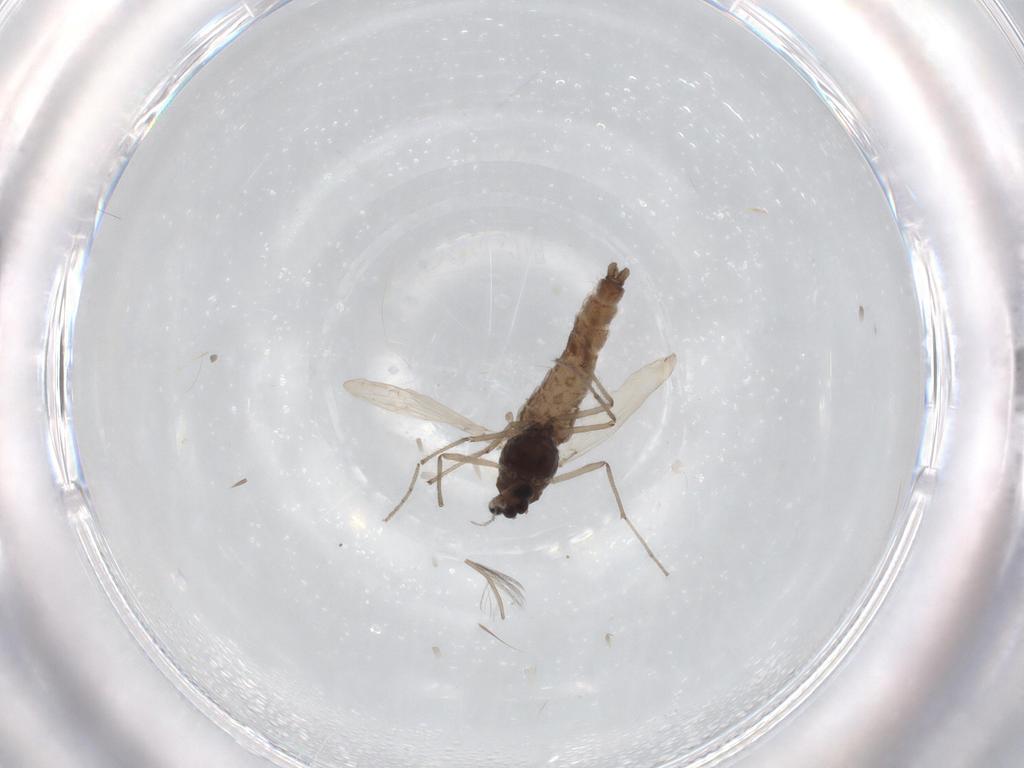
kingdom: Animalia
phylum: Arthropoda
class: Insecta
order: Diptera
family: Chironomidae
